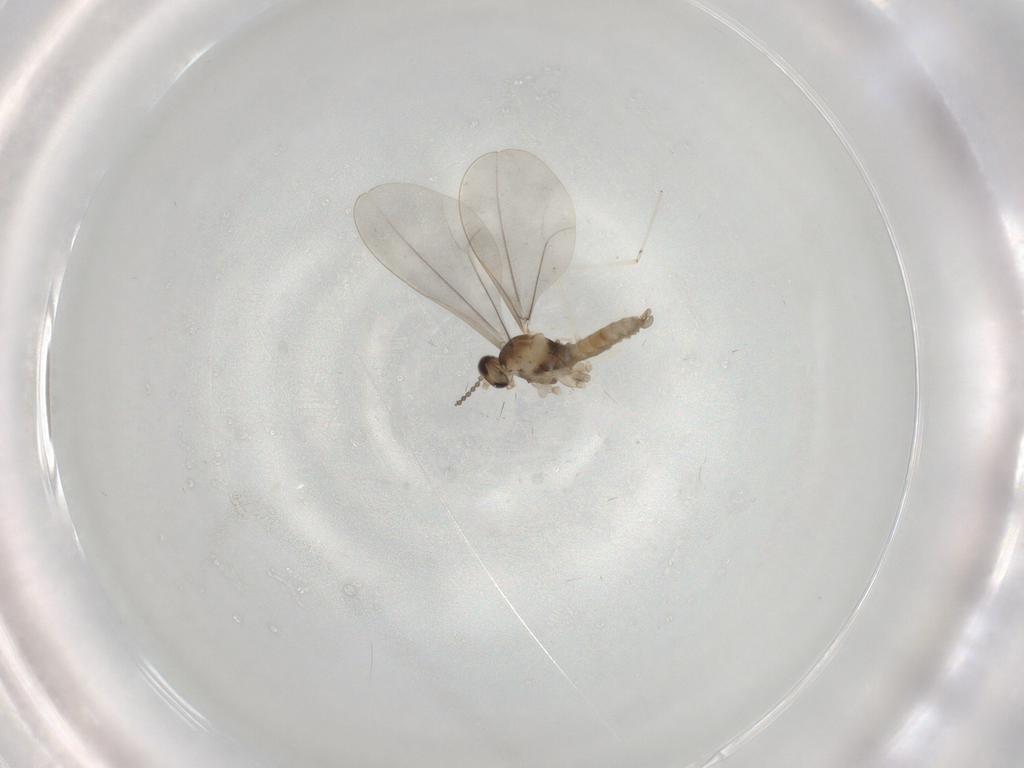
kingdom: Animalia
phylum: Arthropoda
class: Insecta
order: Diptera
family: Cecidomyiidae
